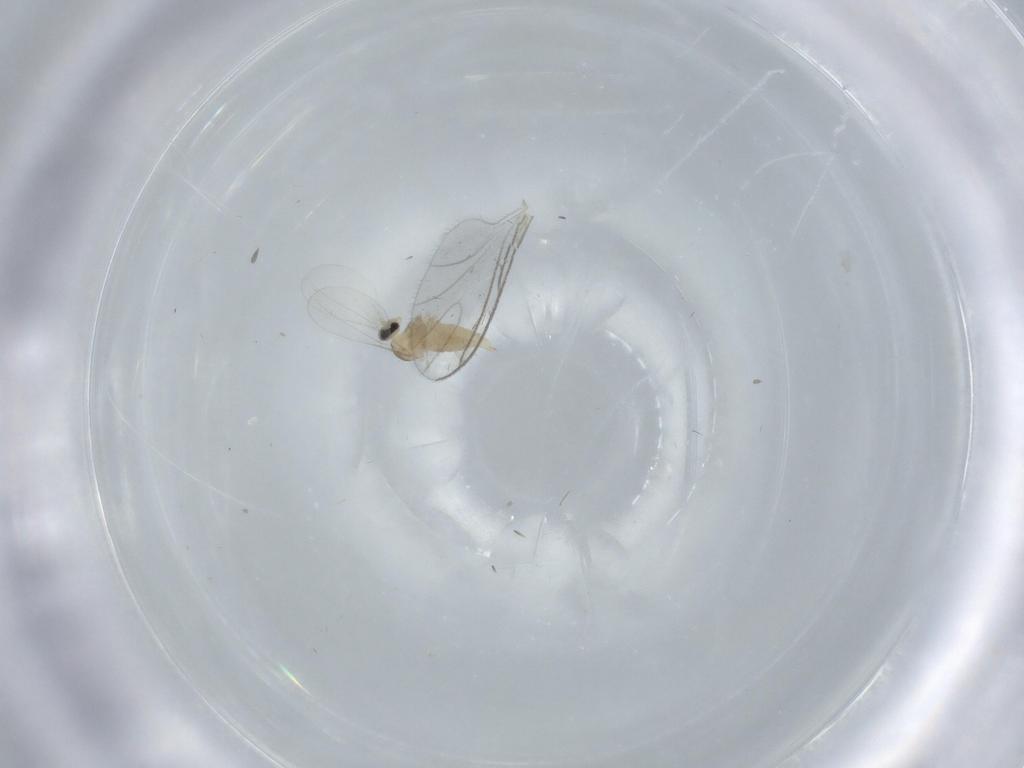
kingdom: Animalia
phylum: Arthropoda
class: Insecta
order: Diptera
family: Cecidomyiidae
